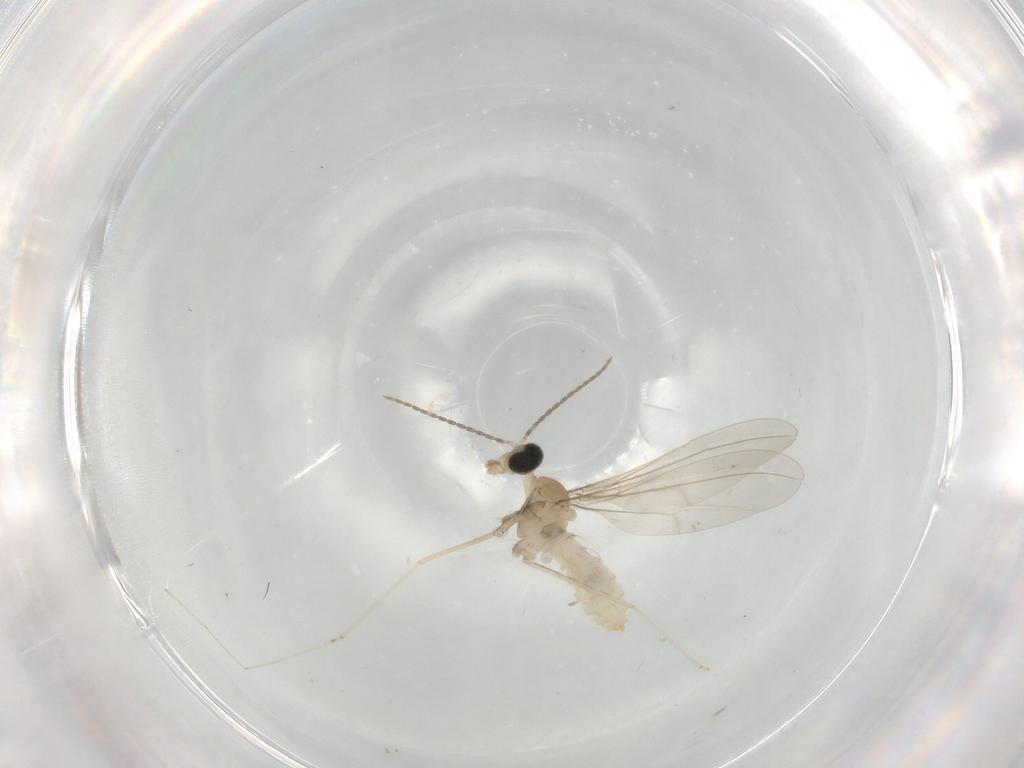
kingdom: Animalia
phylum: Arthropoda
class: Insecta
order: Diptera
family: Cecidomyiidae
